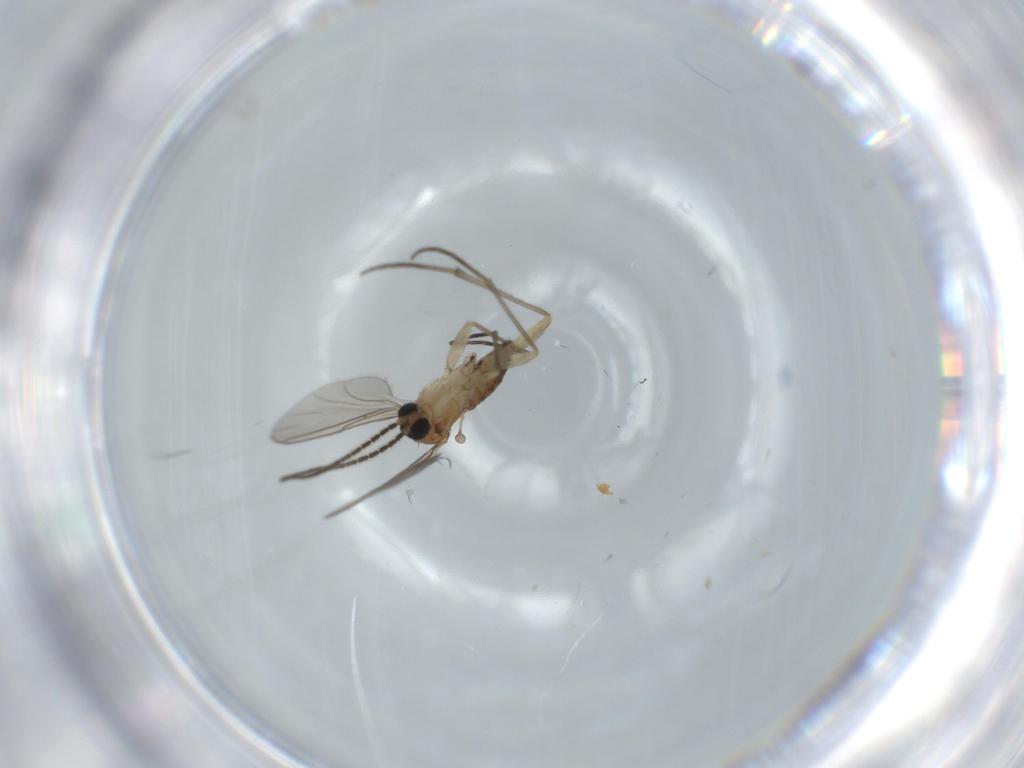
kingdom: Animalia
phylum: Arthropoda
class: Insecta
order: Diptera
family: Sciaridae
